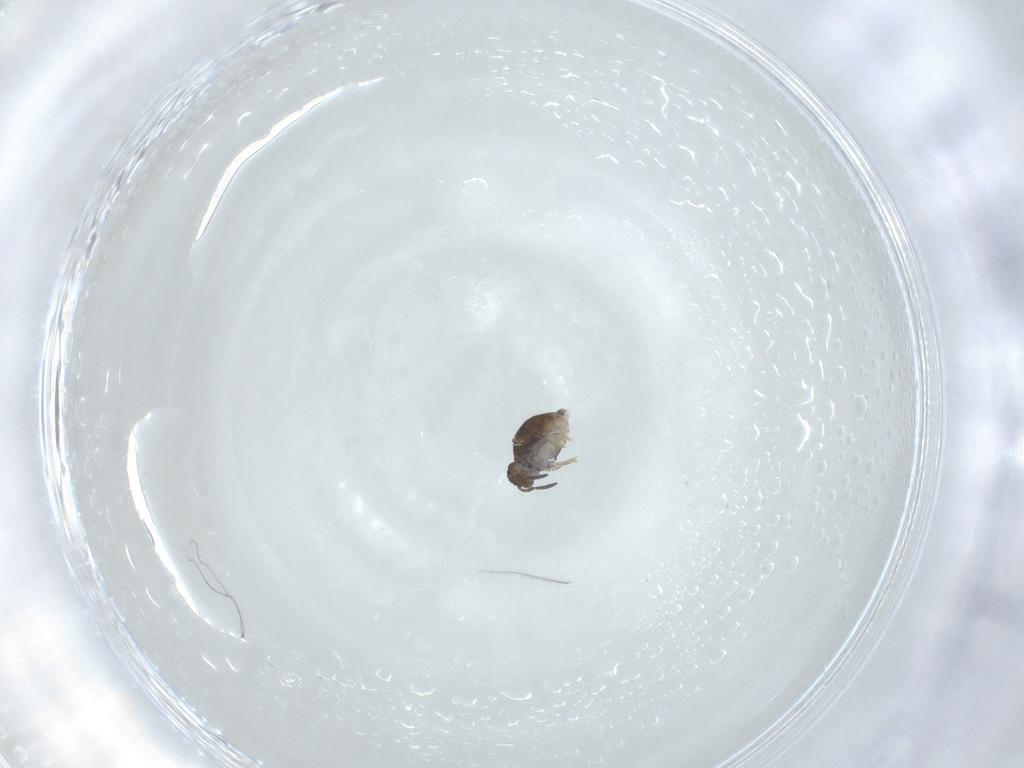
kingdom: Animalia
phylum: Arthropoda
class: Collembola
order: Symphypleona
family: Katiannidae
